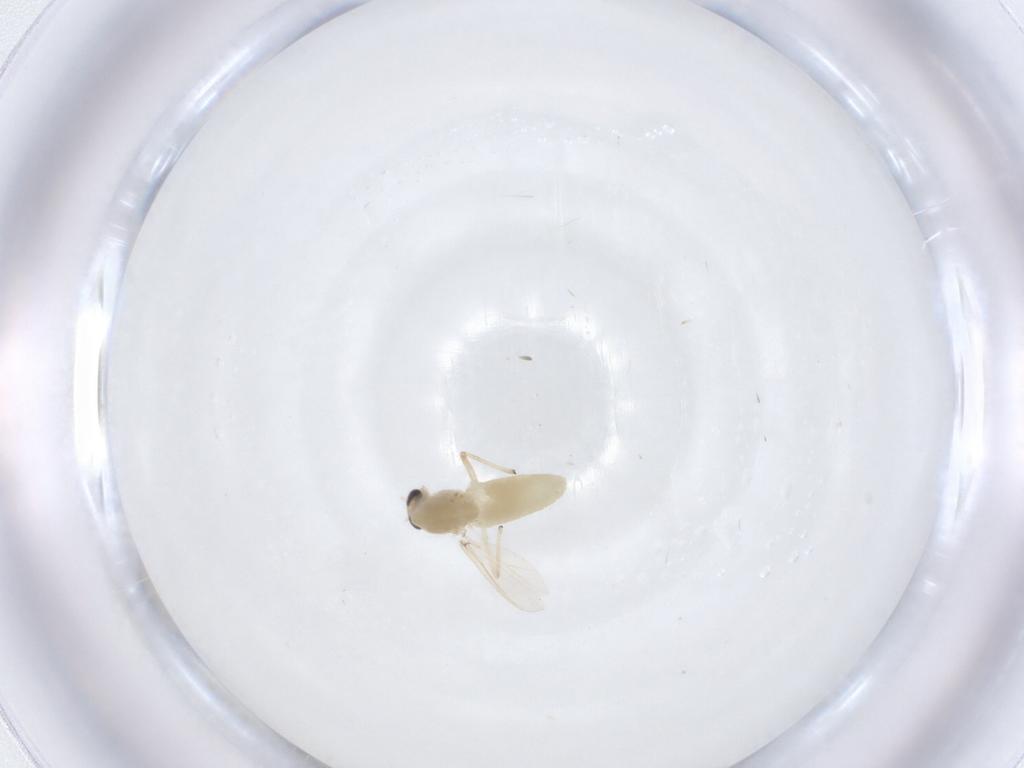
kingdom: Animalia
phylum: Arthropoda
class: Insecta
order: Diptera
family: Chironomidae
